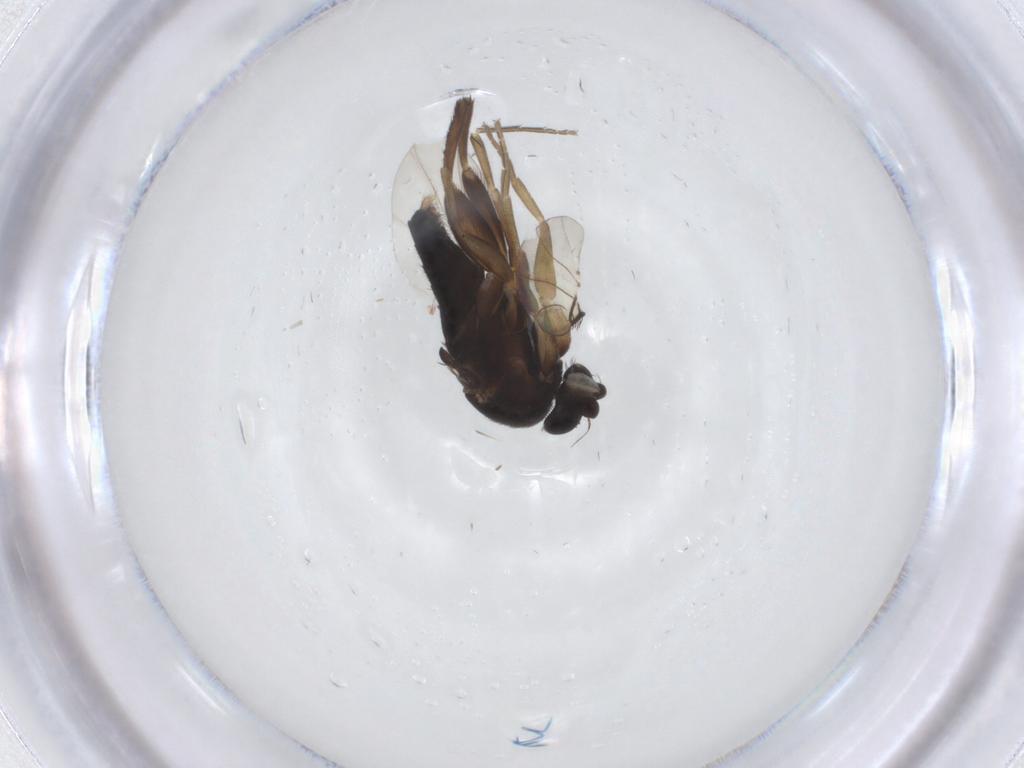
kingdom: Animalia
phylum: Arthropoda
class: Insecta
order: Diptera
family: Phoridae
